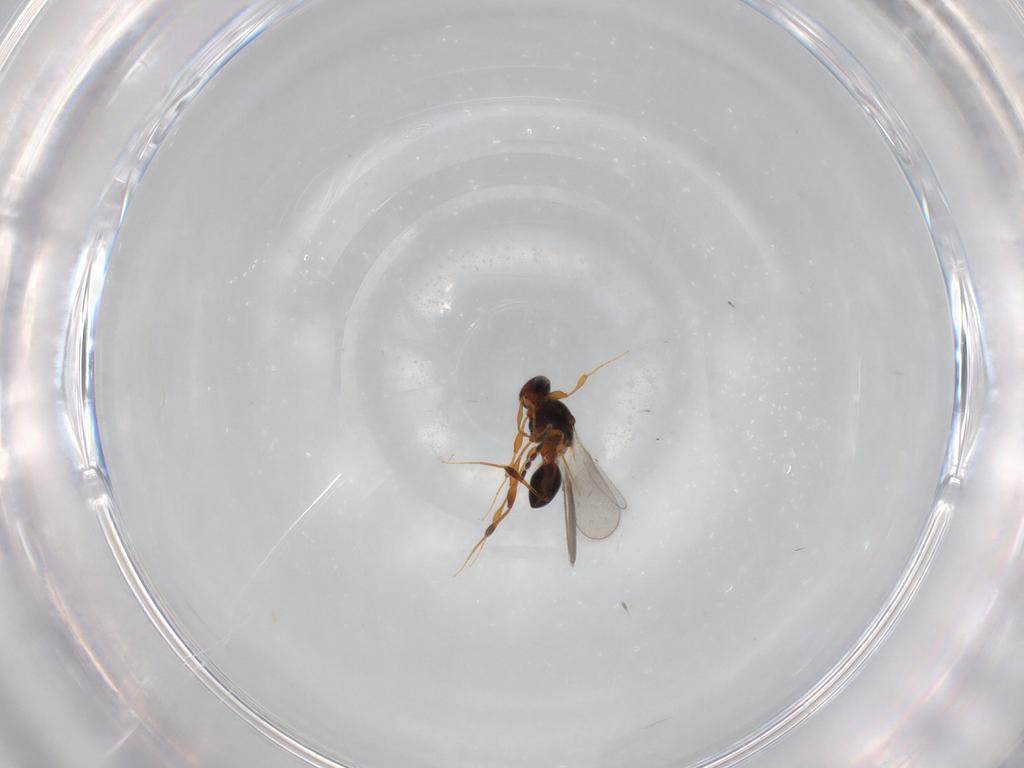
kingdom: Animalia
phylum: Arthropoda
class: Insecta
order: Hymenoptera
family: Platygastridae
